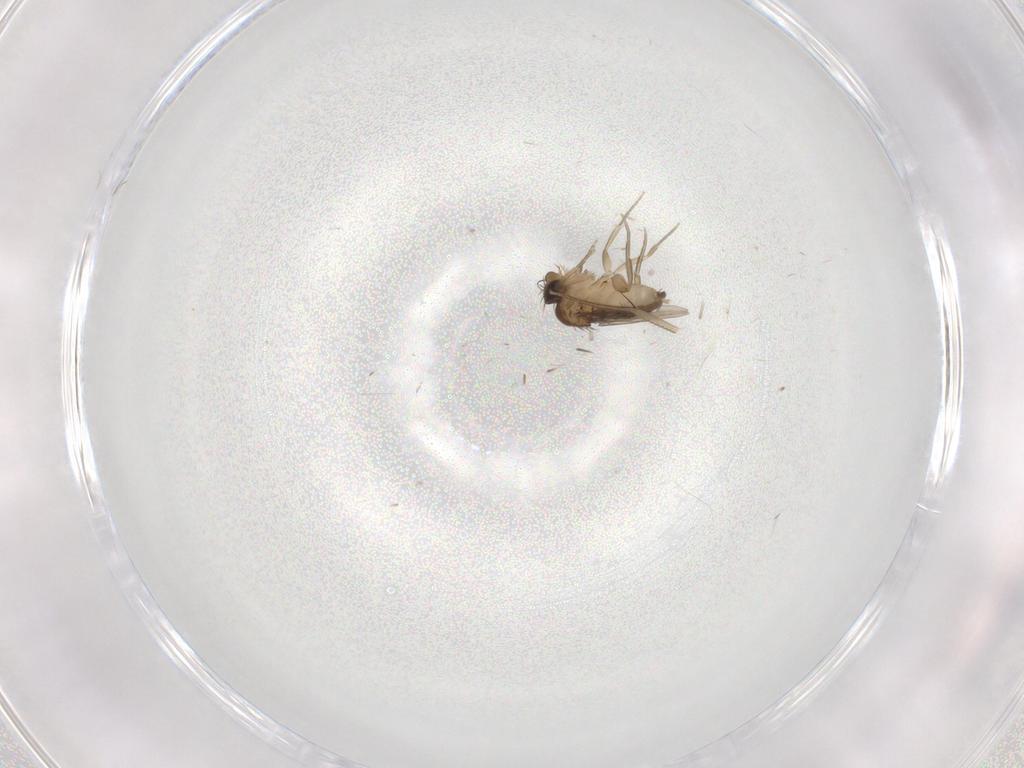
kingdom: Animalia
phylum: Arthropoda
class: Insecta
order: Diptera
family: Phoridae
